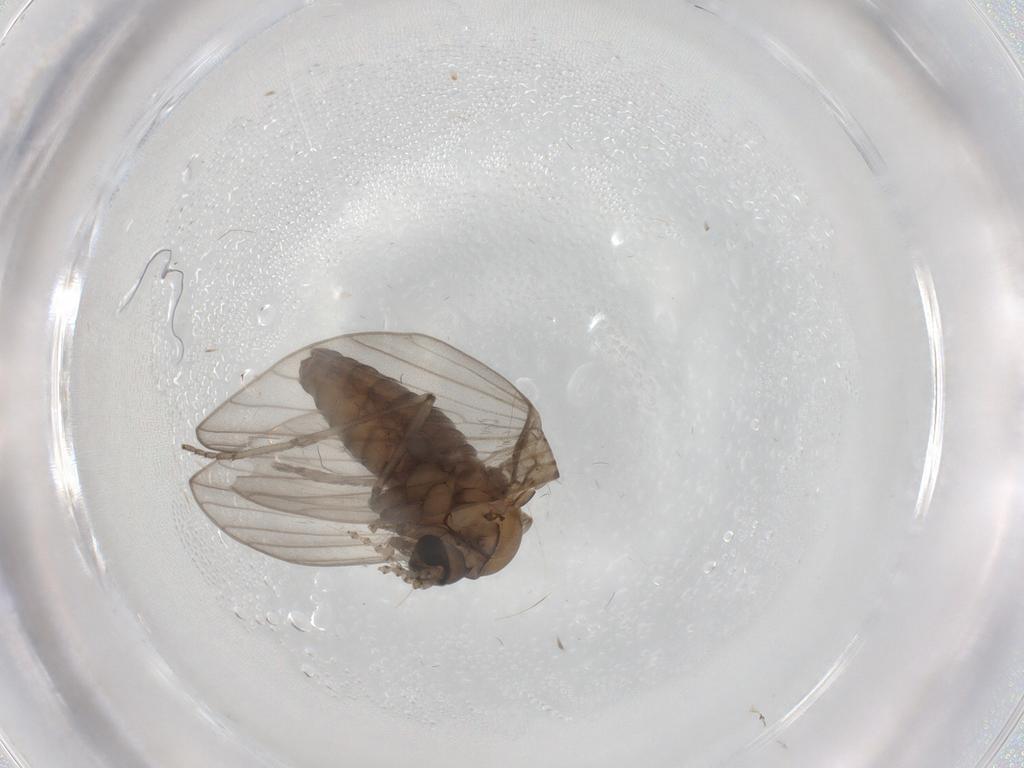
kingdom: Animalia
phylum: Arthropoda
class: Insecta
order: Diptera
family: Psychodidae
